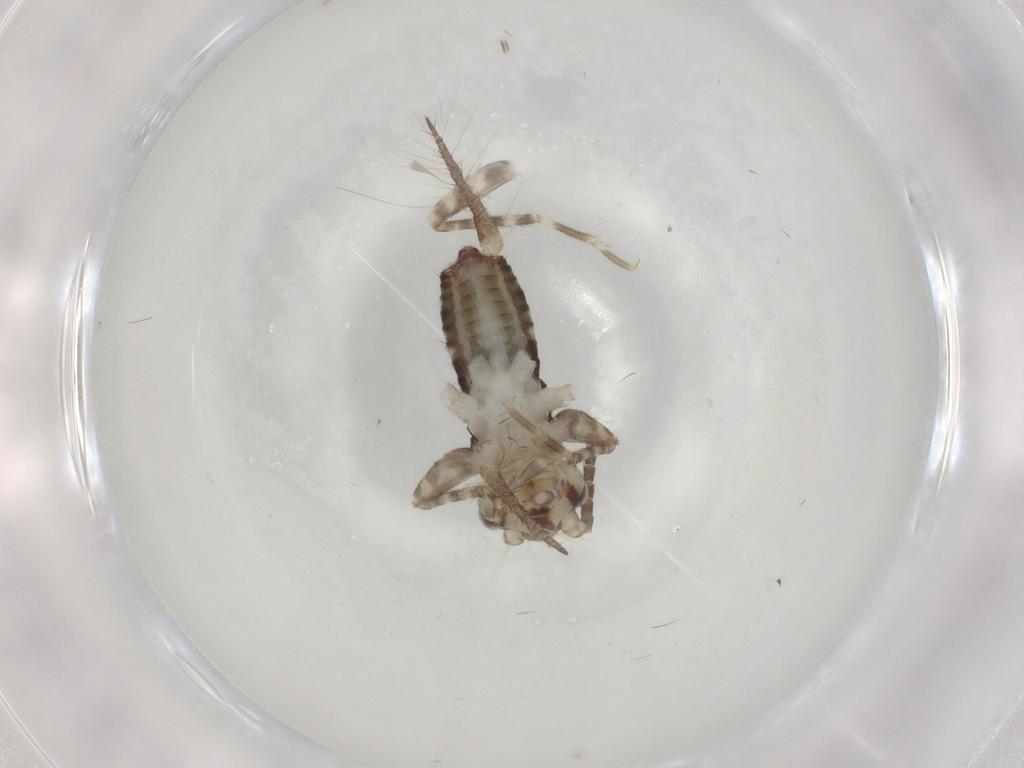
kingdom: Animalia
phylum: Arthropoda
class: Insecta
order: Orthoptera
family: Gryllidae
